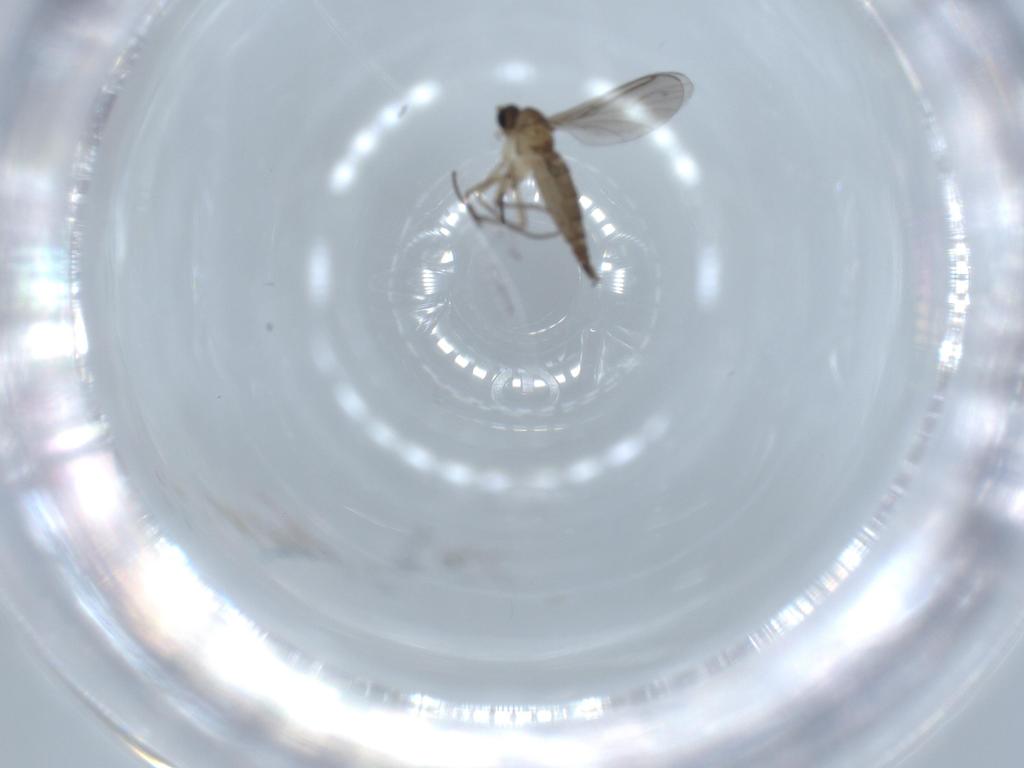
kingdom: Animalia
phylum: Arthropoda
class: Insecta
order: Diptera
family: Sciaridae
